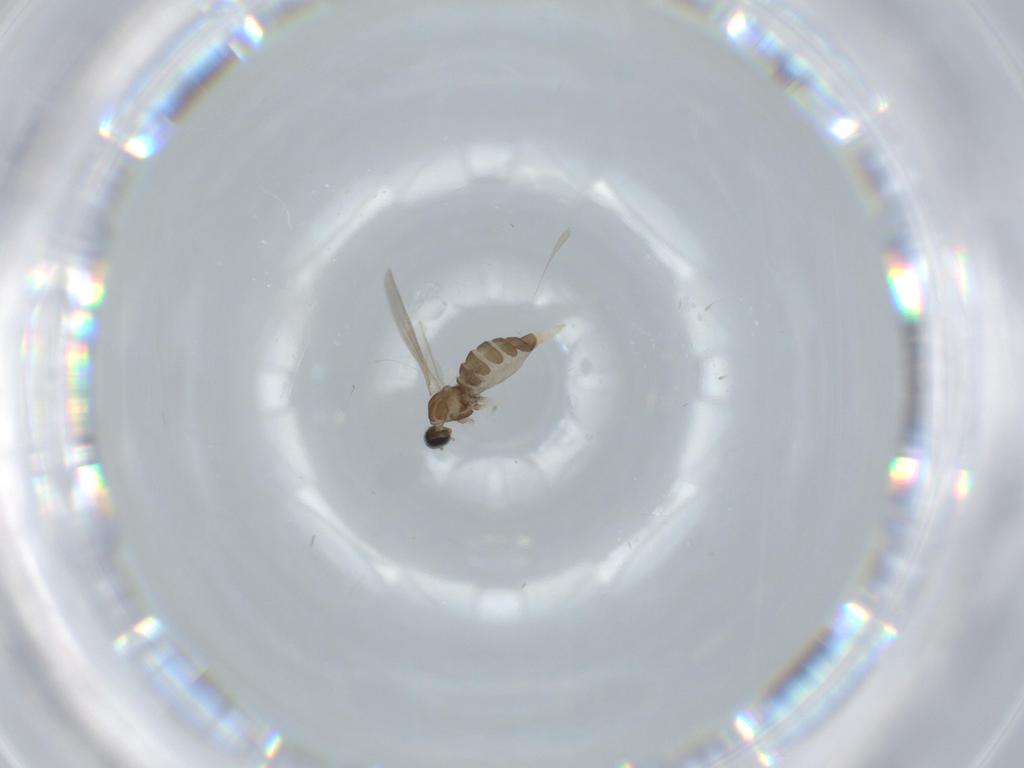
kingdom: Animalia
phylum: Arthropoda
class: Insecta
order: Diptera
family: Cecidomyiidae
